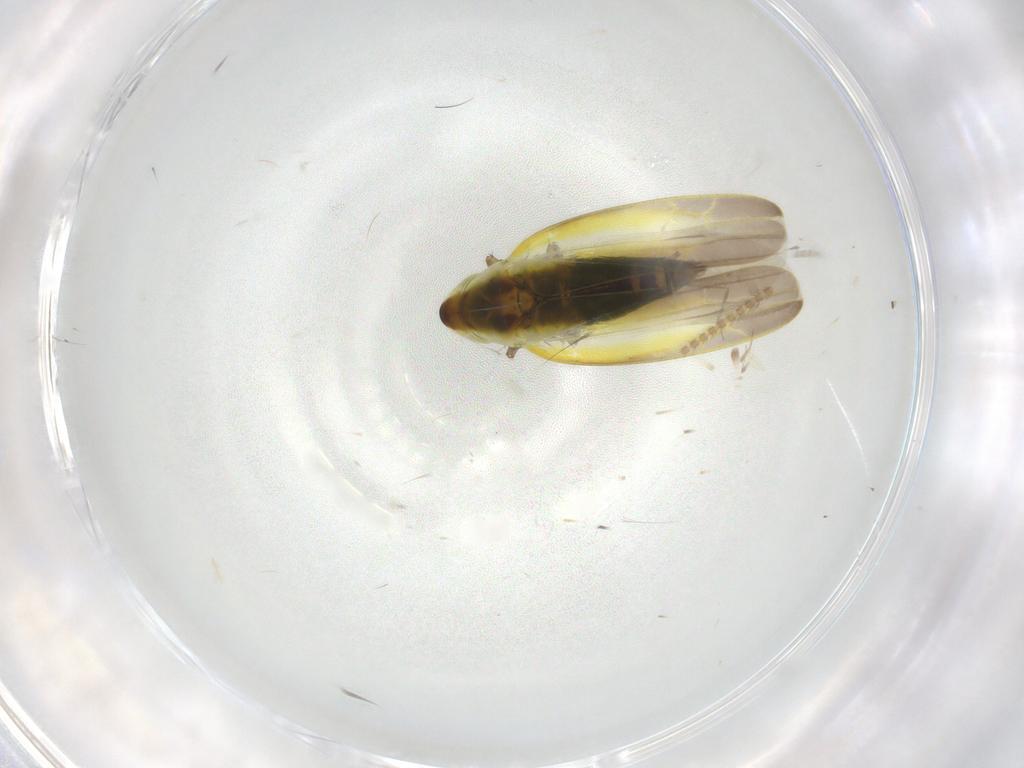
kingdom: Animalia
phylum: Arthropoda
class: Insecta
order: Hemiptera
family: Cicadellidae
